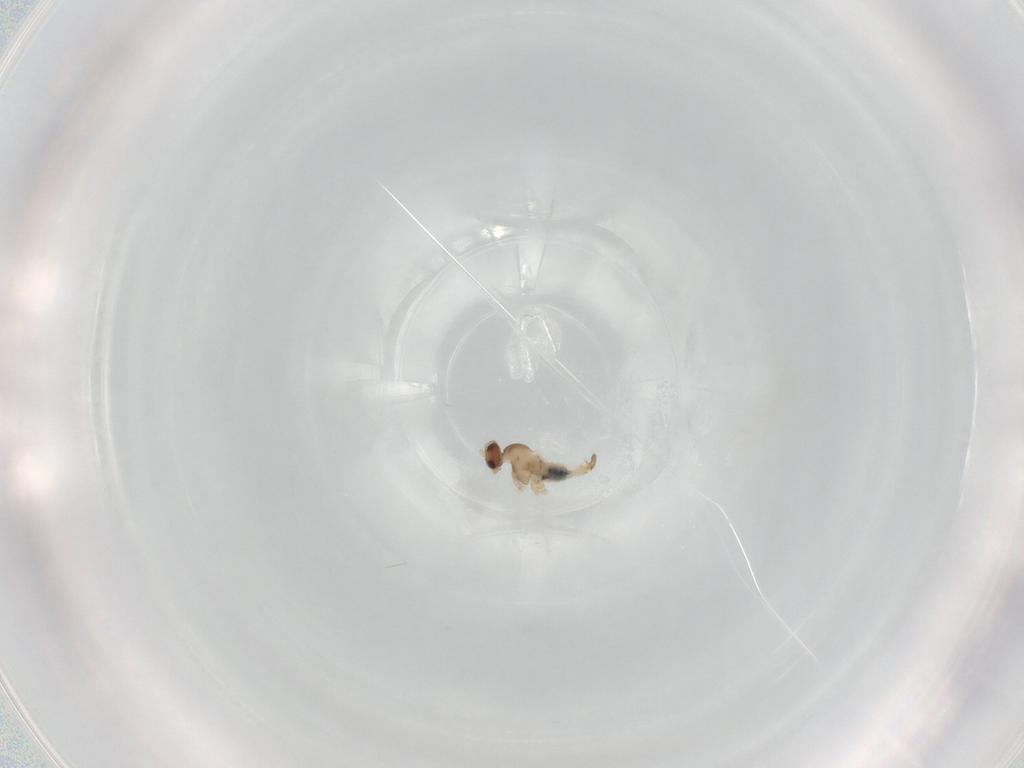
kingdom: Animalia
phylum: Arthropoda
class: Insecta
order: Diptera
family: Cecidomyiidae
